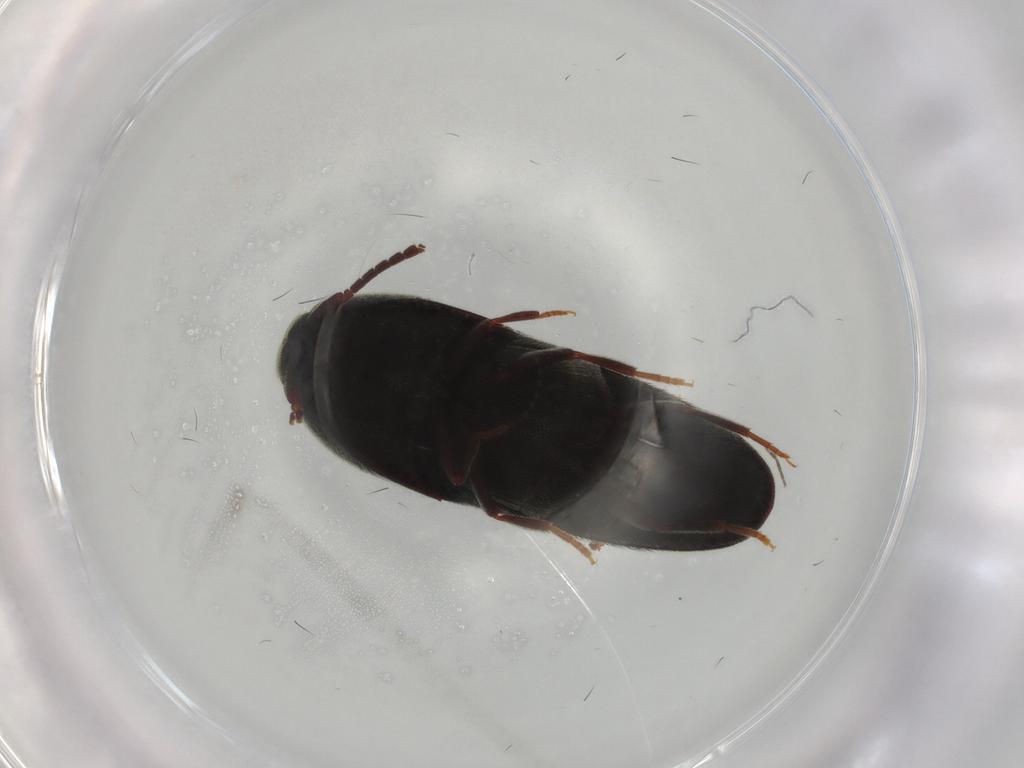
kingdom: Animalia
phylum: Arthropoda
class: Insecta
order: Coleoptera
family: Eucnemidae
